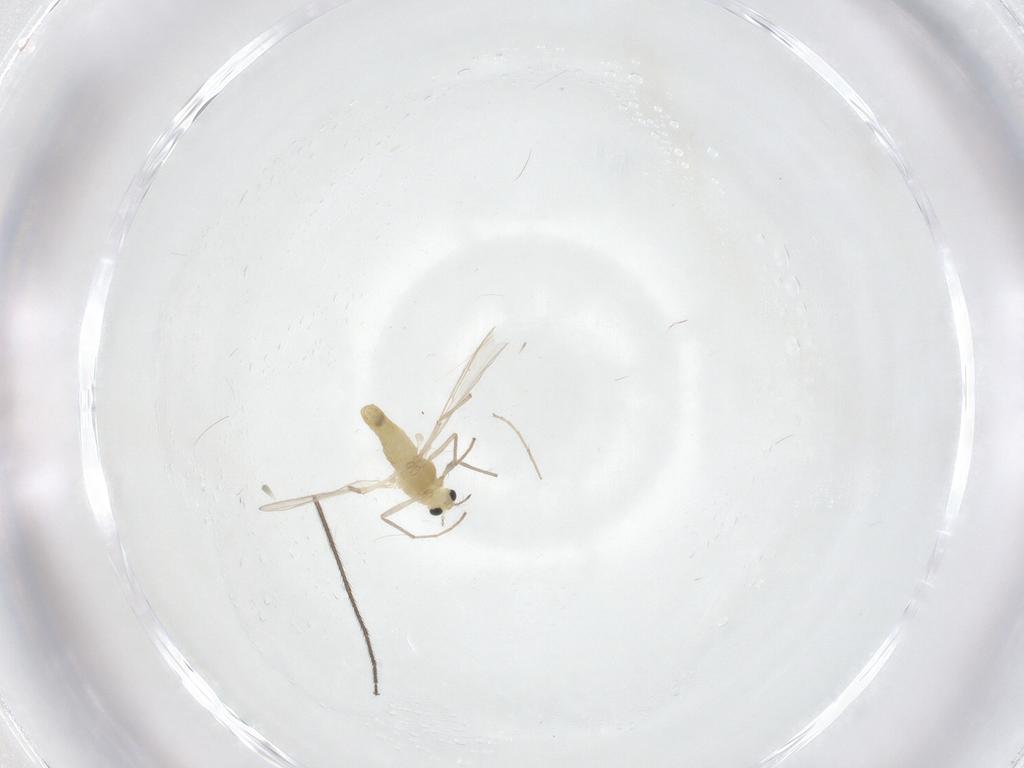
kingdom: Animalia
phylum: Arthropoda
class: Insecta
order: Diptera
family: Chironomidae
